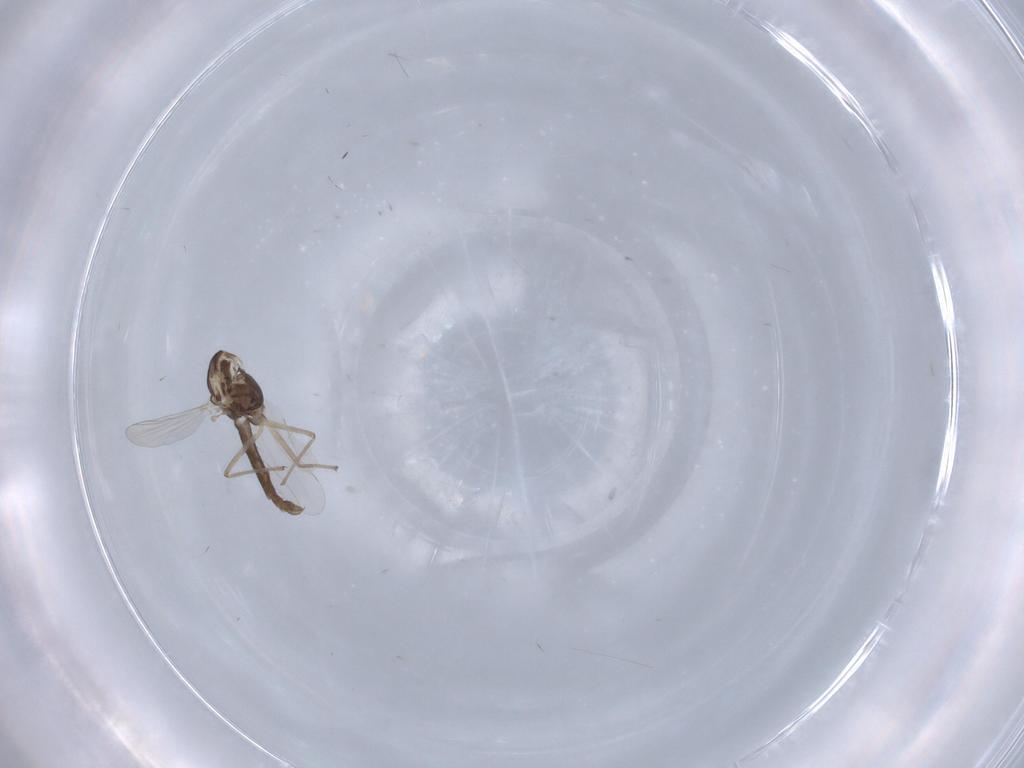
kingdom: Animalia
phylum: Arthropoda
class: Insecta
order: Diptera
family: Chironomidae
